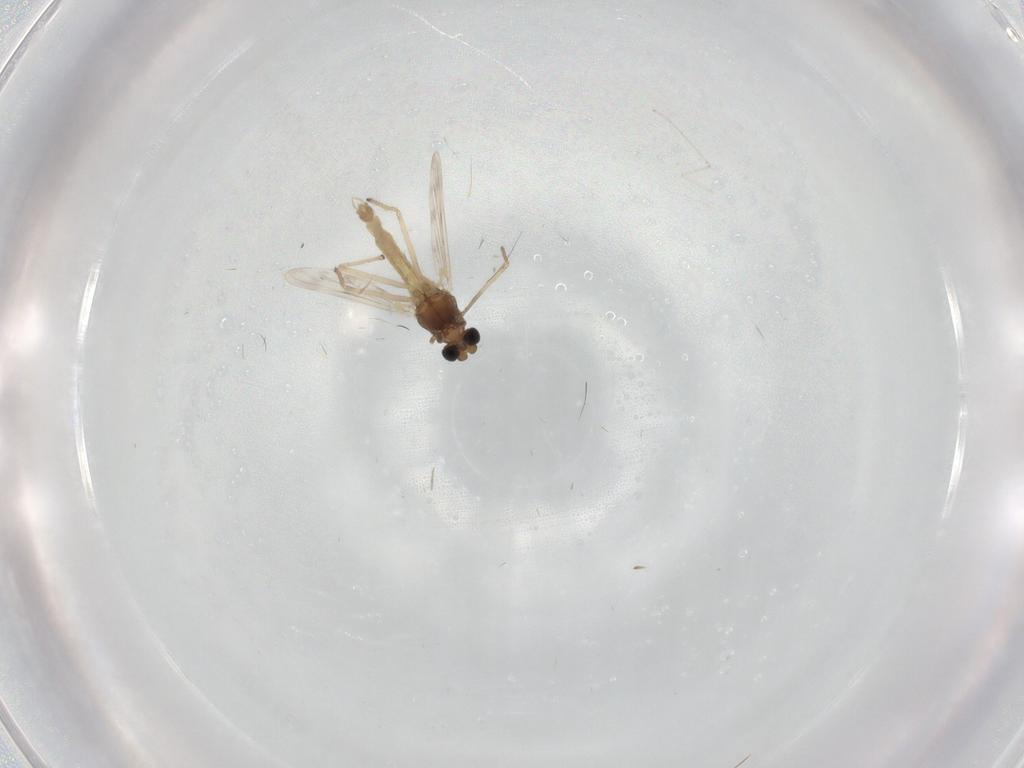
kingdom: Animalia
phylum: Arthropoda
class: Insecta
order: Diptera
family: Chironomidae
